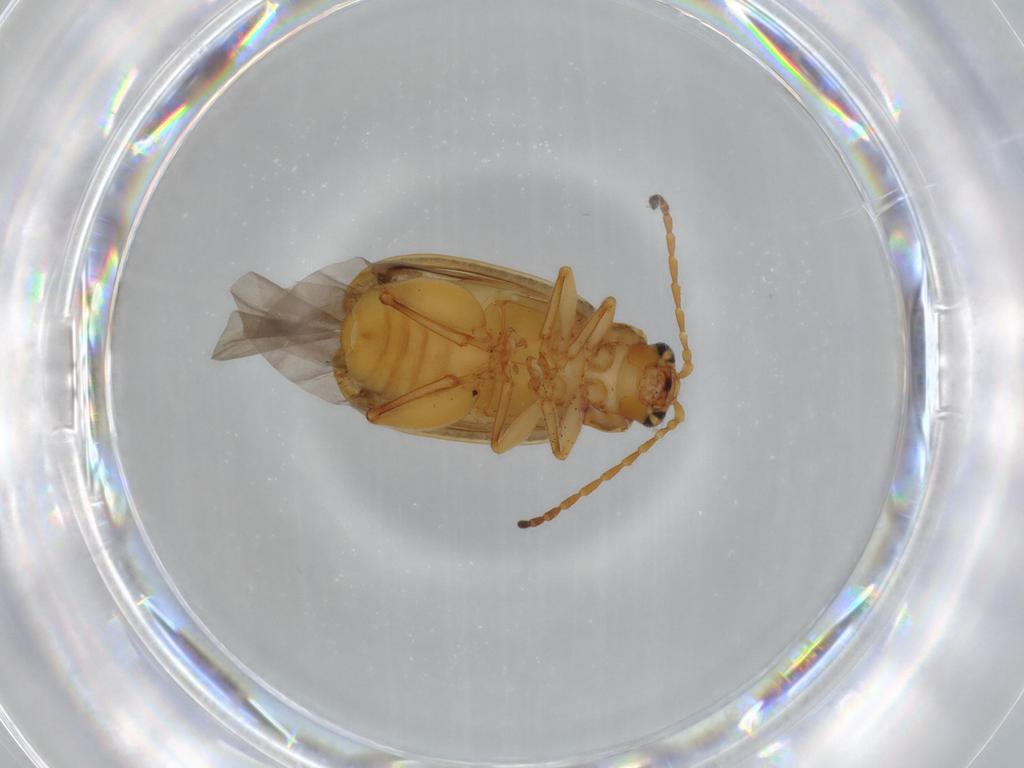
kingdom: Animalia
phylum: Arthropoda
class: Insecta
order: Coleoptera
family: Chrysomelidae
